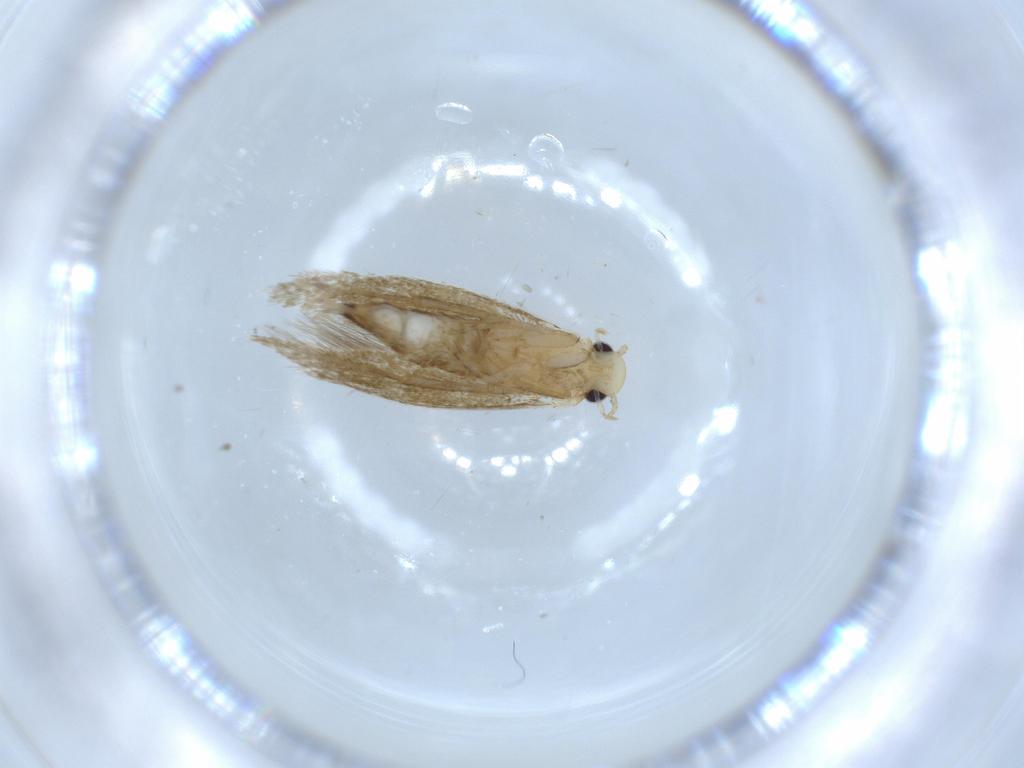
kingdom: Animalia
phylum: Arthropoda
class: Insecta
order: Lepidoptera
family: Tineidae
